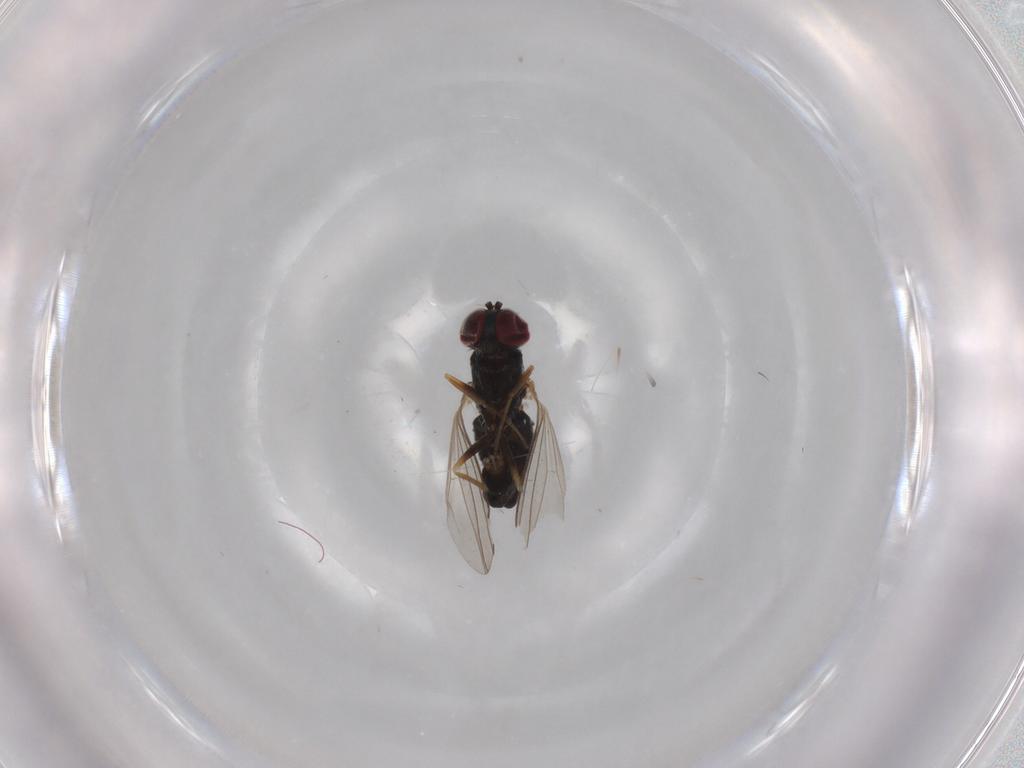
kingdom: Animalia
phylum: Arthropoda
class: Insecta
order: Diptera
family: Dolichopodidae
